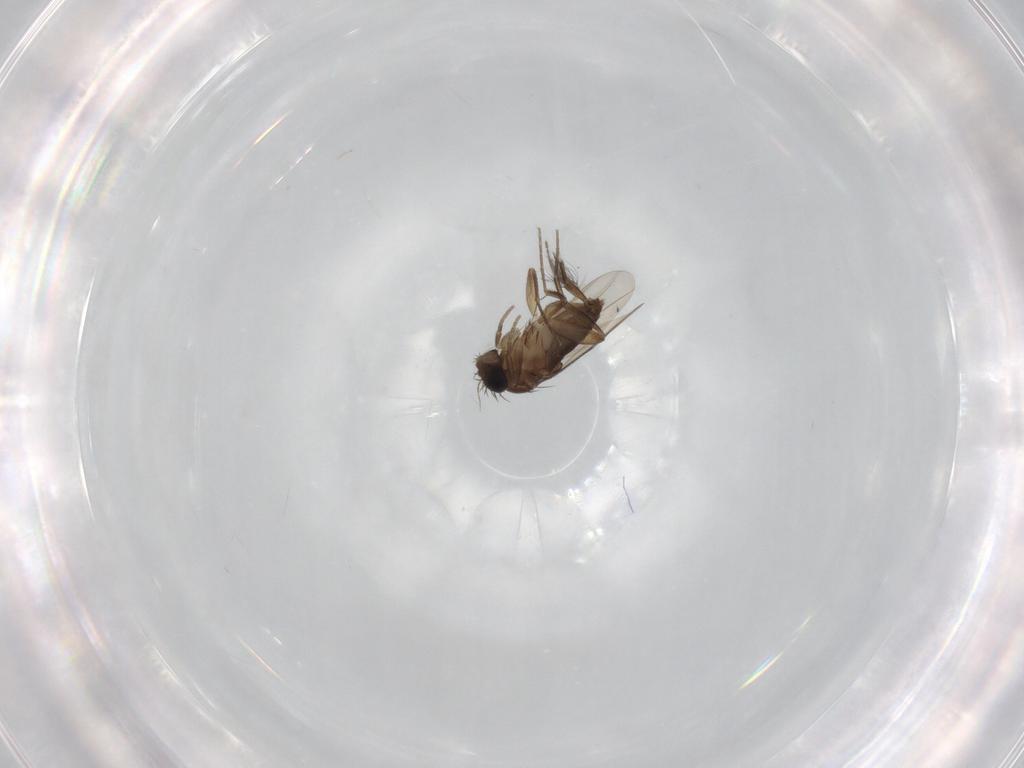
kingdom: Animalia
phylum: Arthropoda
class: Insecta
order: Diptera
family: Phoridae
